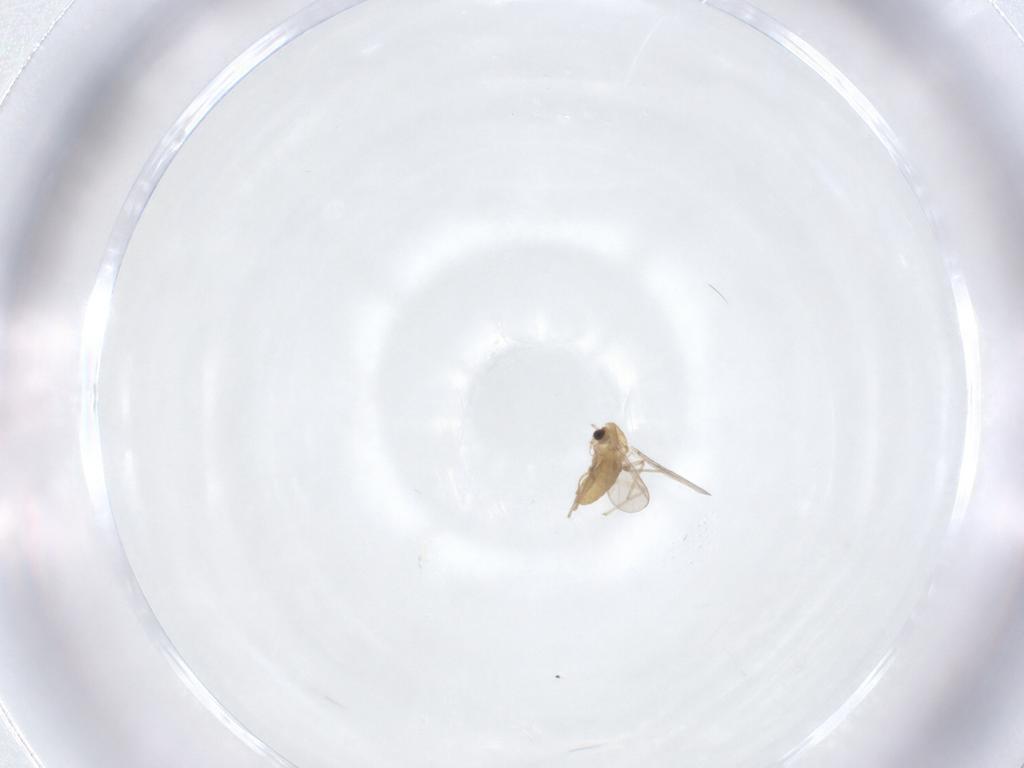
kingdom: Animalia
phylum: Arthropoda
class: Insecta
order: Diptera
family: Chironomidae
